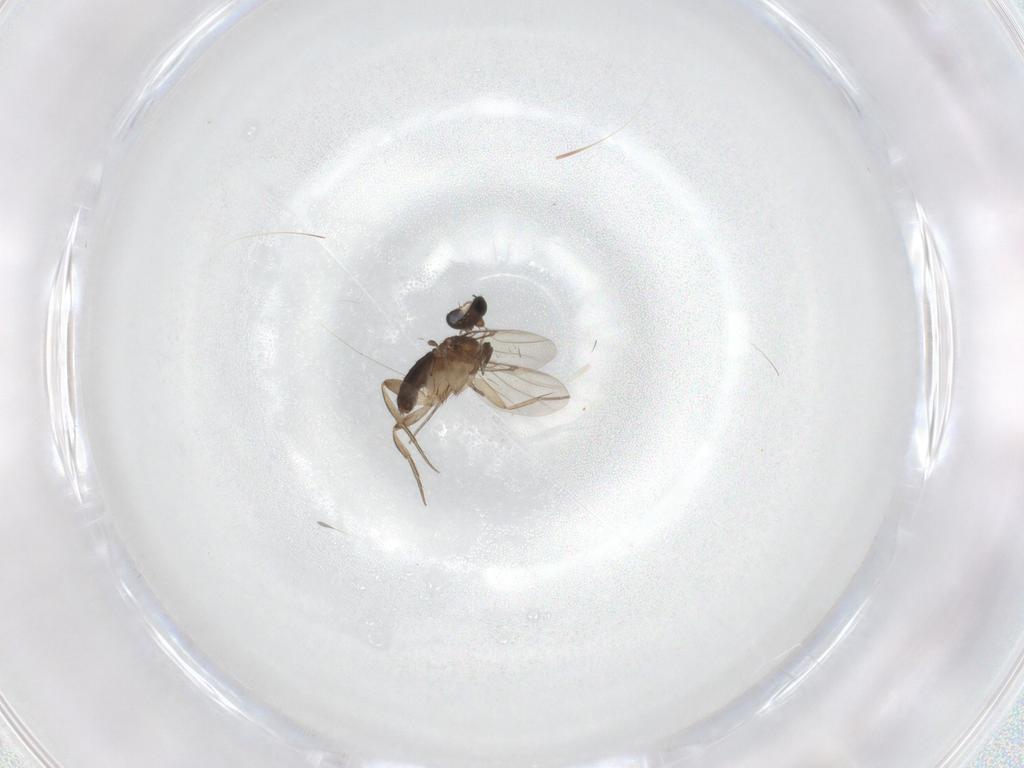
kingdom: Animalia
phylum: Arthropoda
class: Insecta
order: Diptera
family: Phoridae
